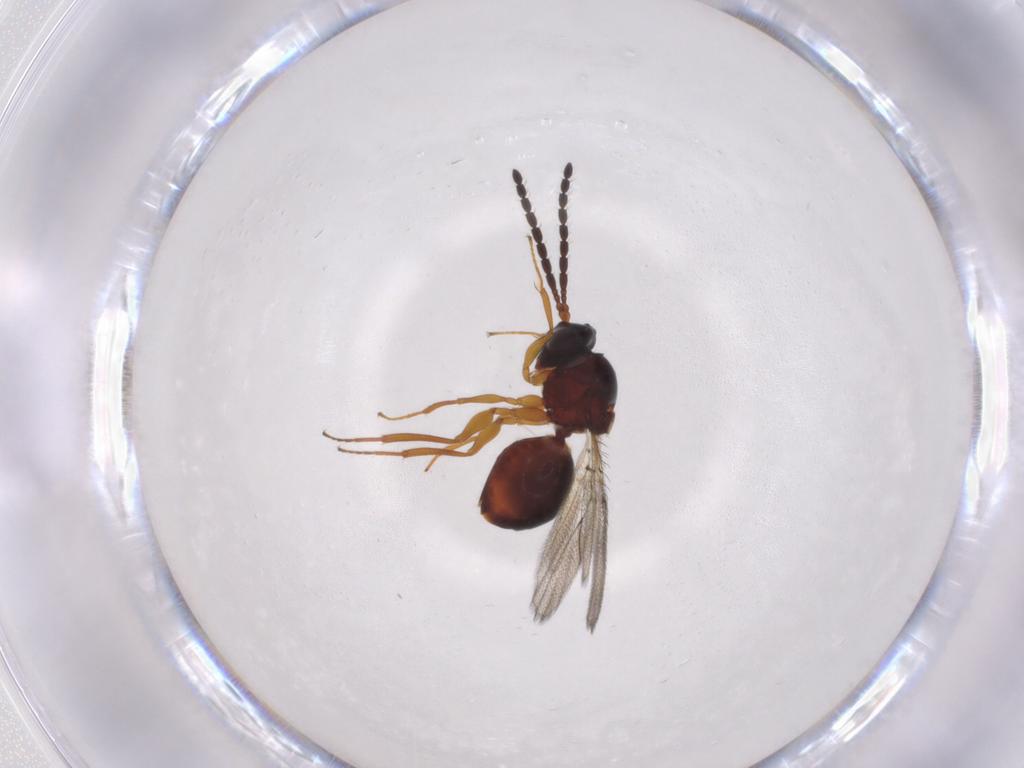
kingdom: Animalia
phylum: Arthropoda
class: Insecta
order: Hymenoptera
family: Figitidae
